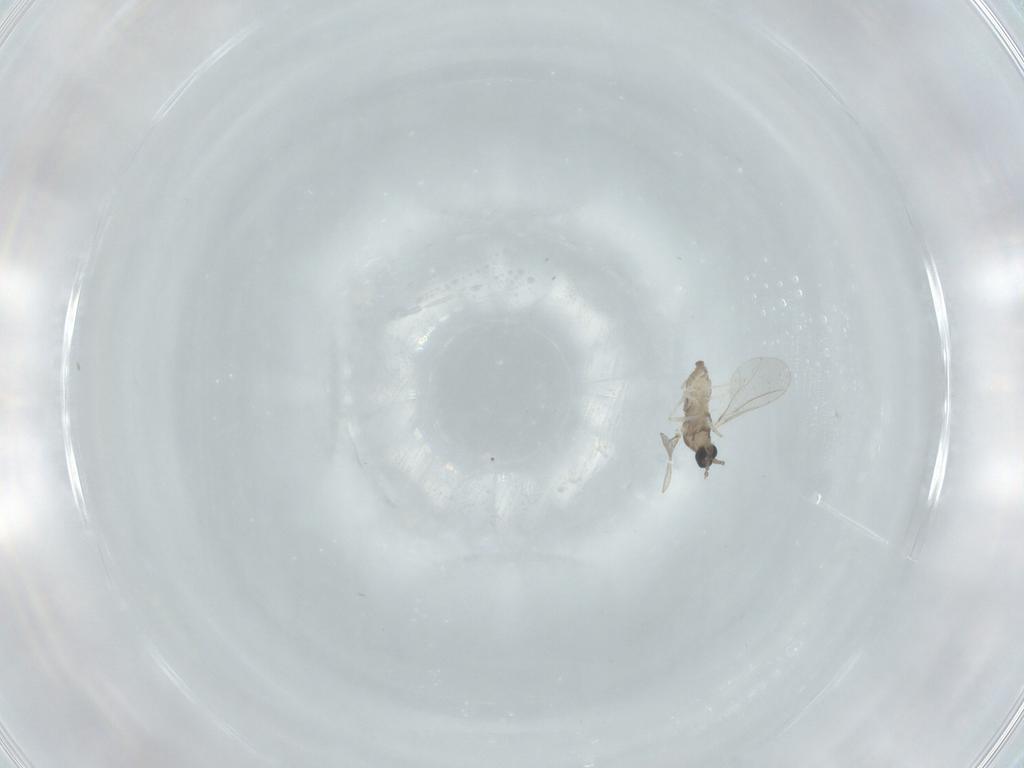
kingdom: Animalia
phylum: Arthropoda
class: Insecta
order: Diptera
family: Cecidomyiidae
